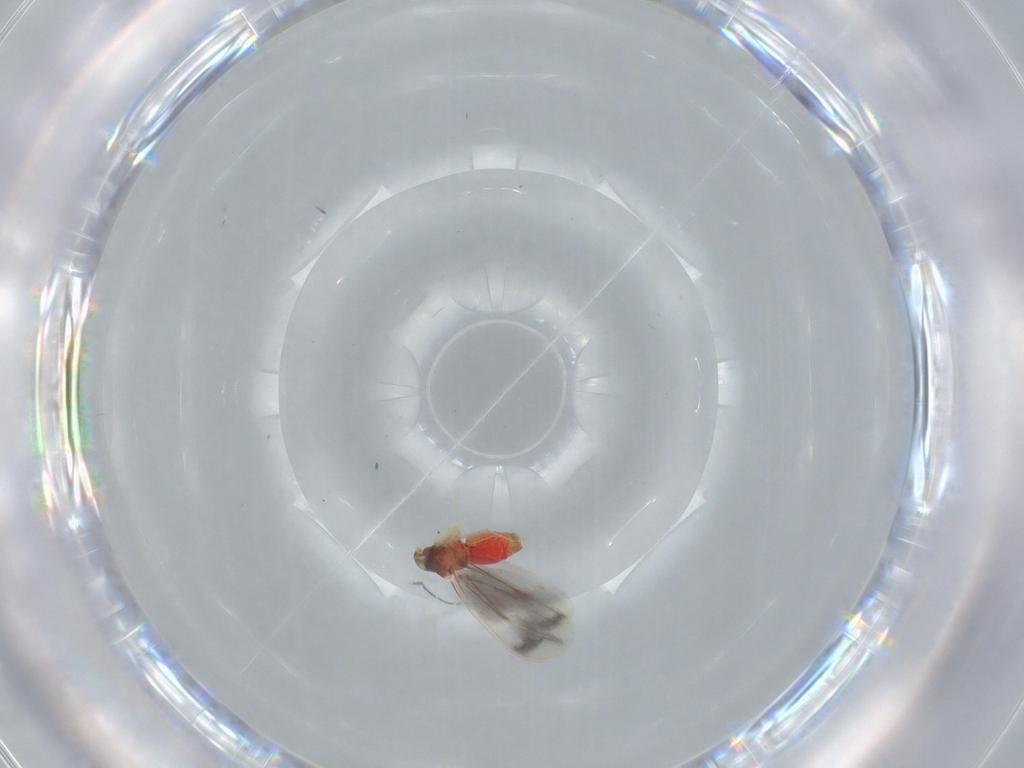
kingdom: Animalia
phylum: Arthropoda
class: Insecta
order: Hemiptera
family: Aleyrodidae
